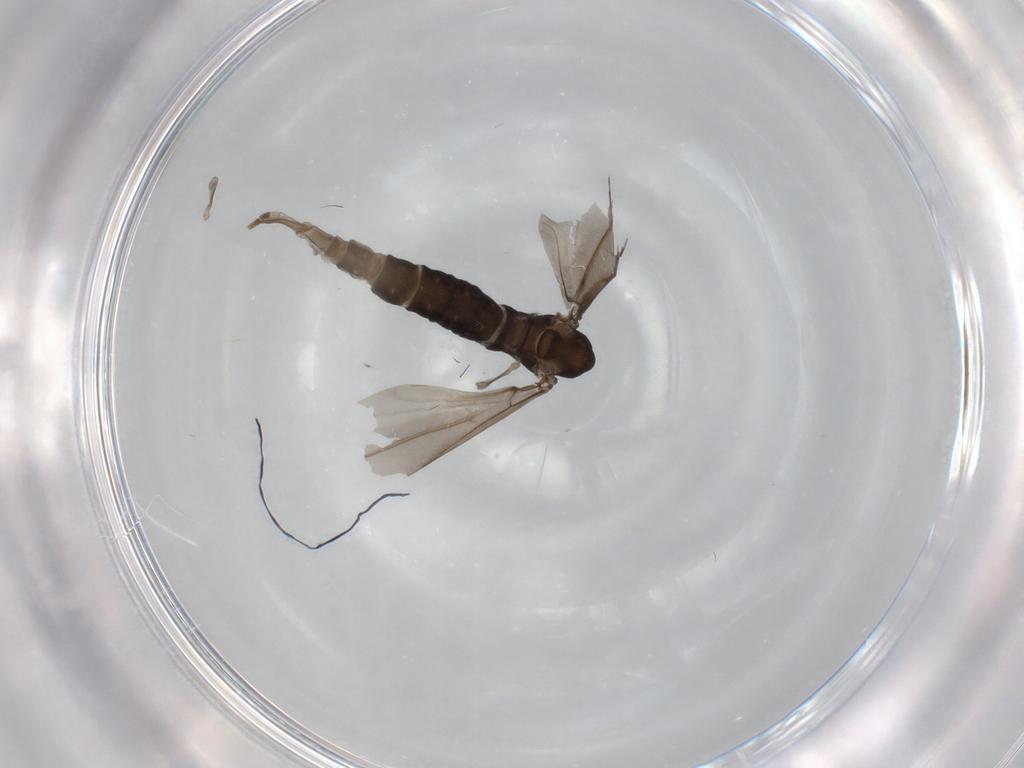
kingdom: Animalia
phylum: Arthropoda
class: Insecta
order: Diptera
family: Cecidomyiidae
